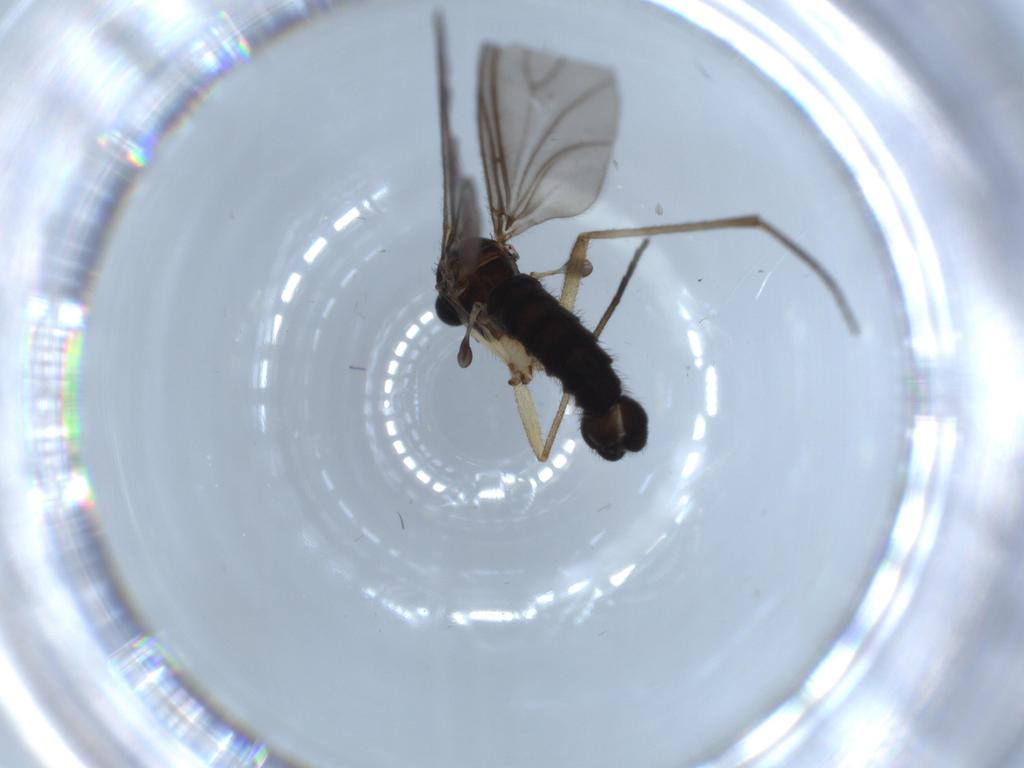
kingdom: Animalia
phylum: Arthropoda
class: Insecta
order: Diptera
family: Sciaridae
